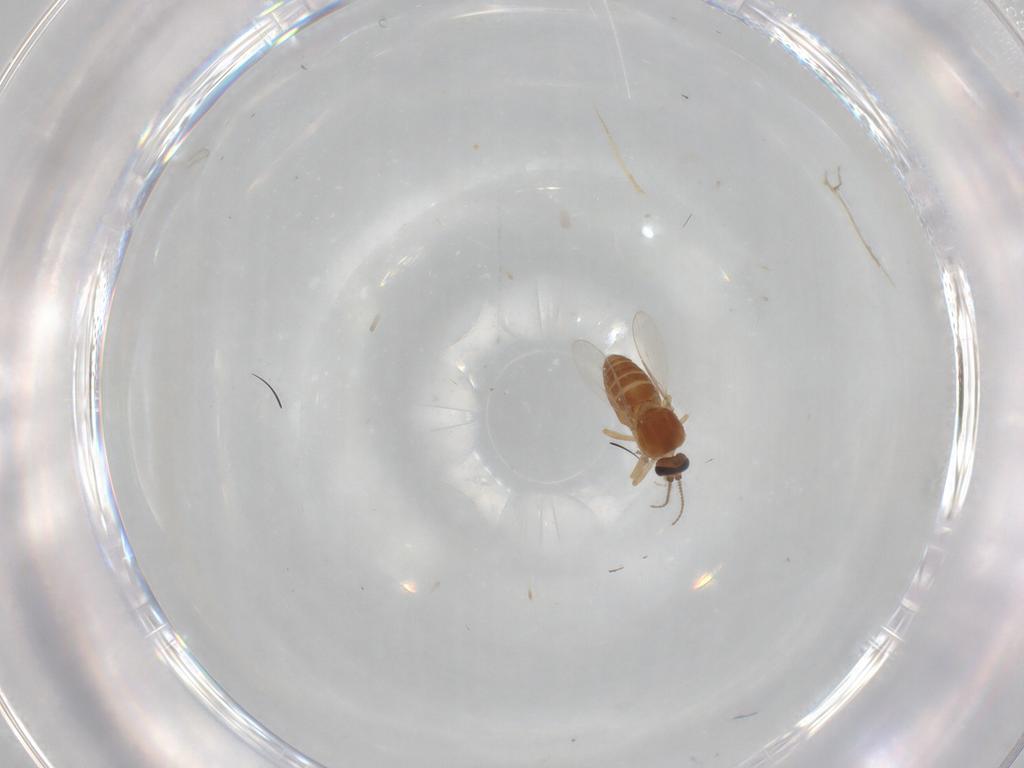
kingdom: Animalia
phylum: Arthropoda
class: Insecta
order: Diptera
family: Ceratopogonidae
